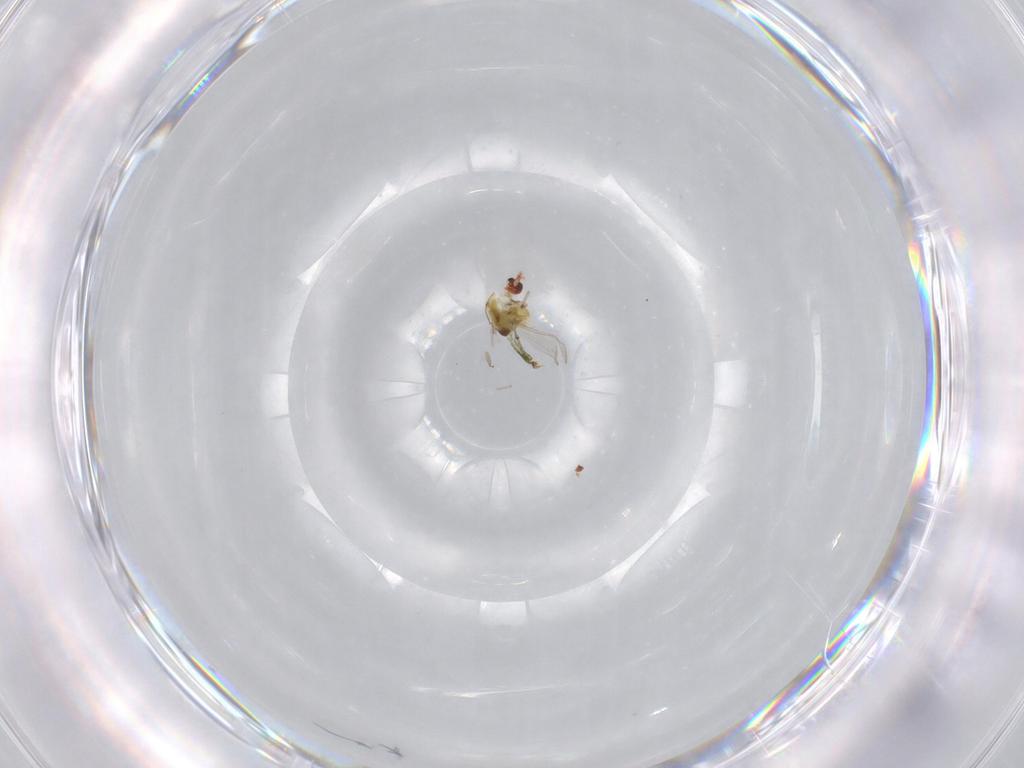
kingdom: Animalia
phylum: Arthropoda
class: Insecta
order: Diptera
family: Chironomidae
